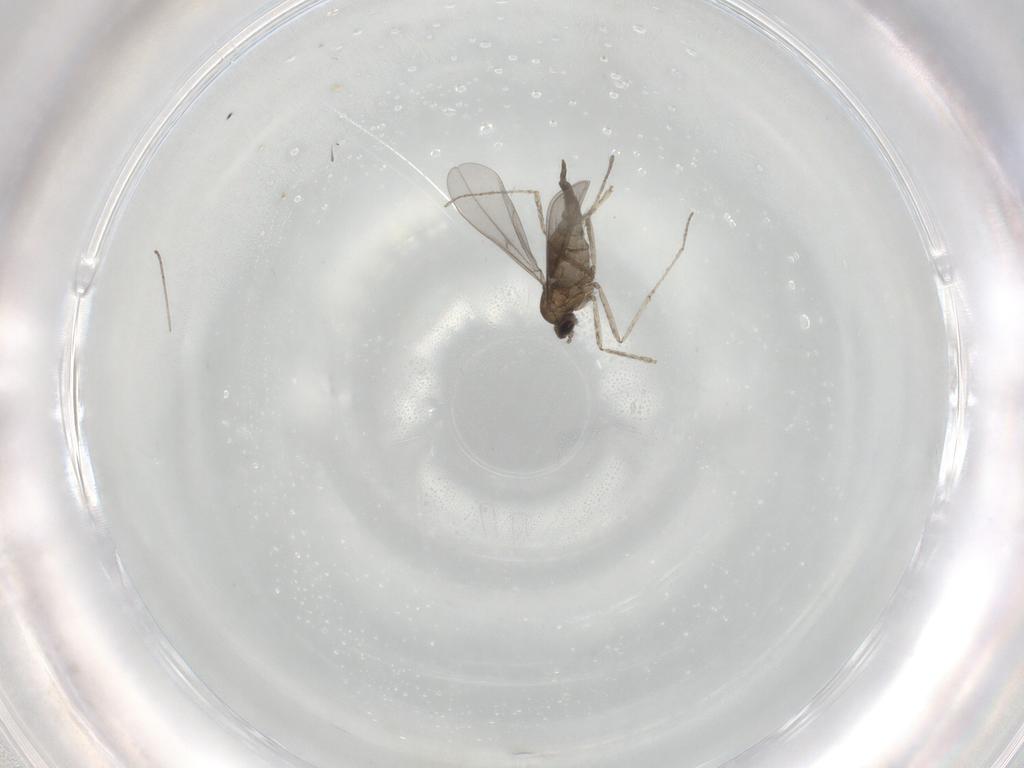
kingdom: Animalia
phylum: Arthropoda
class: Insecta
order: Diptera
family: Cecidomyiidae
